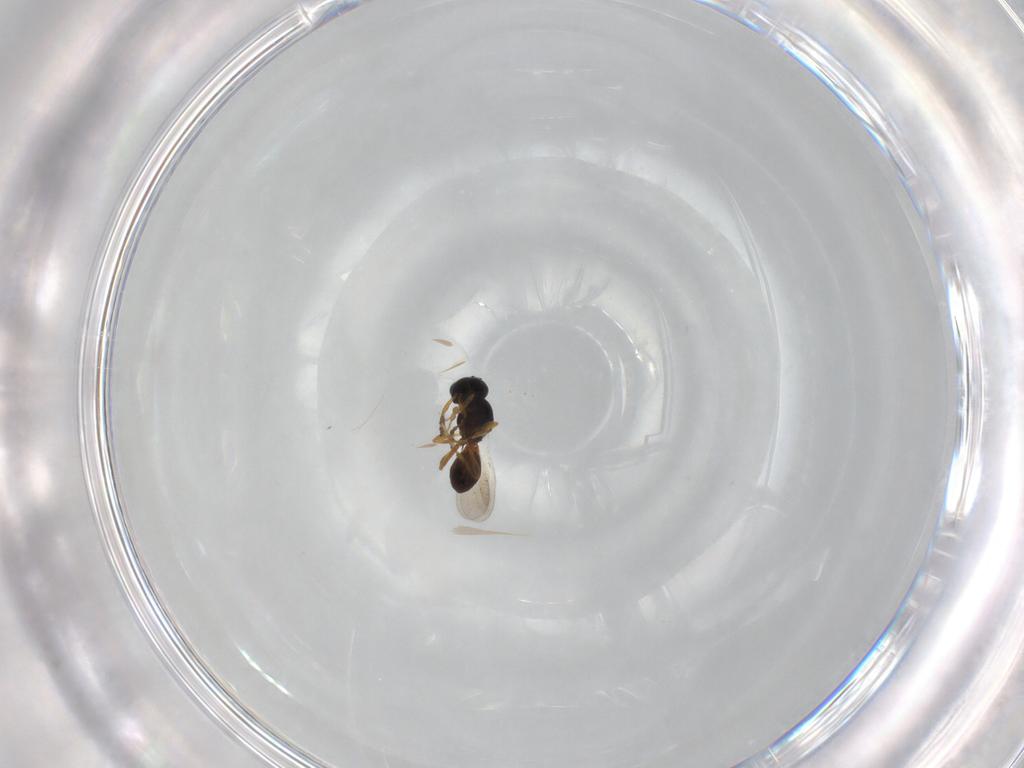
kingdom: Animalia
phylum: Arthropoda
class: Insecta
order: Hymenoptera
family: Platygastridae
